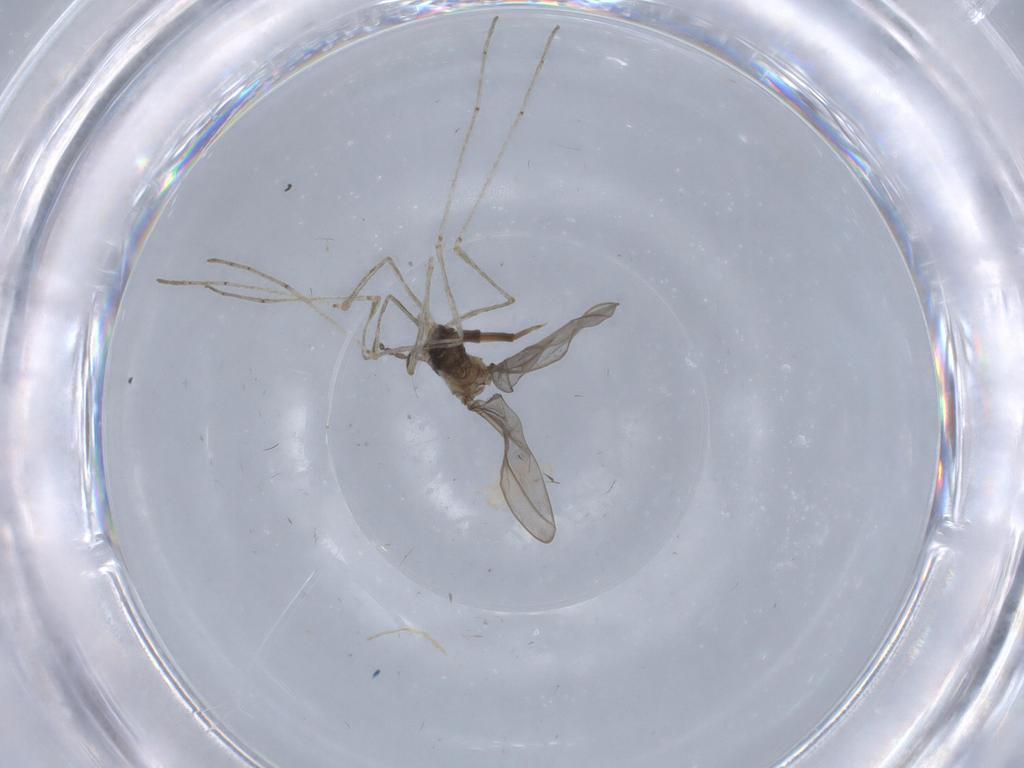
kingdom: Animalia
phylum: Arthropoda
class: Insecta
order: Diptera
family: Cecidomyiidae
